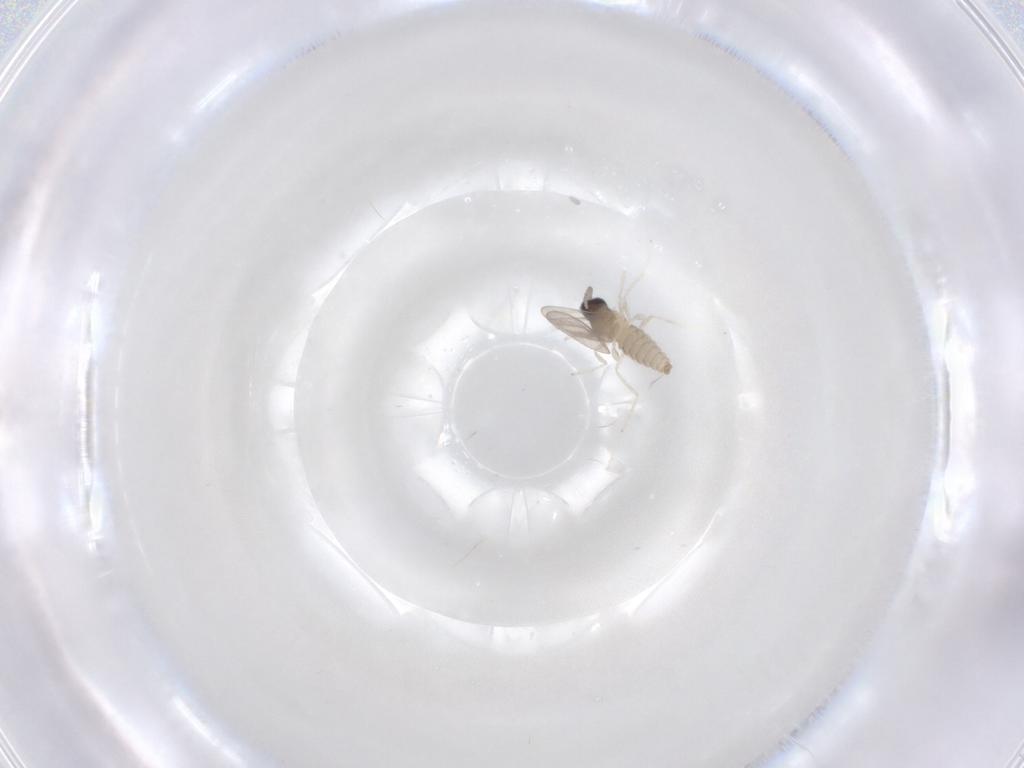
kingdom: Animalia
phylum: Arthropoda
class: Insecta
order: Diptera
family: Cecidomyiidae
